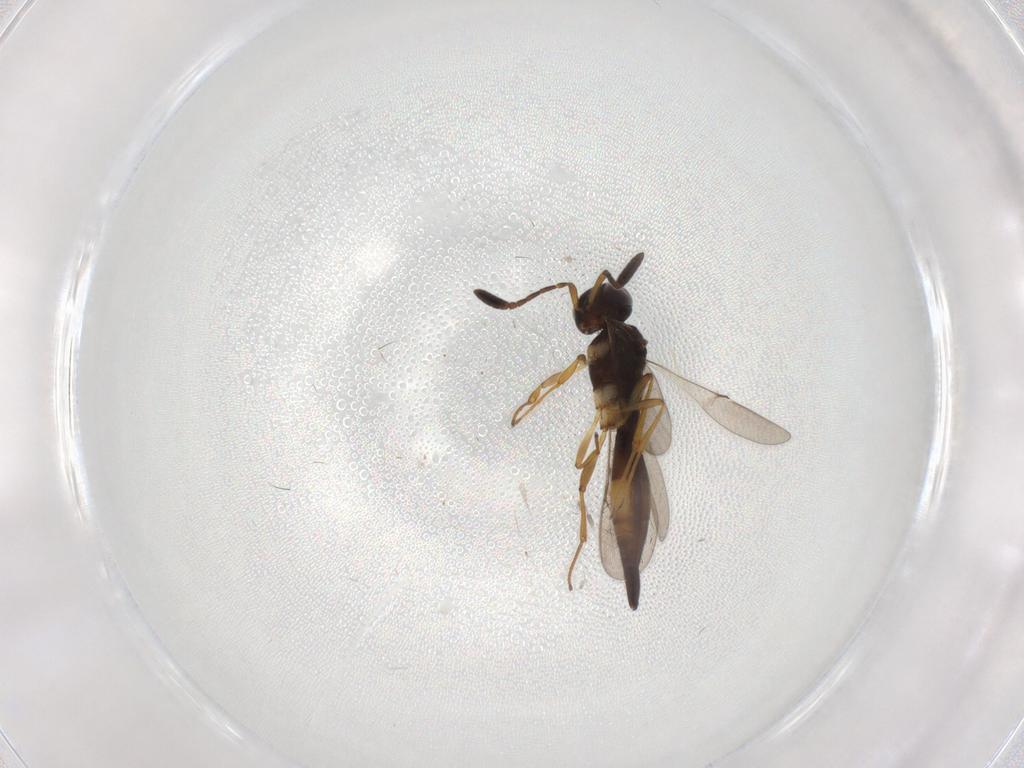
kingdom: Animalia
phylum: Arthropoda
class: Insecta
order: Hymenoptera
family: Scelionidae
